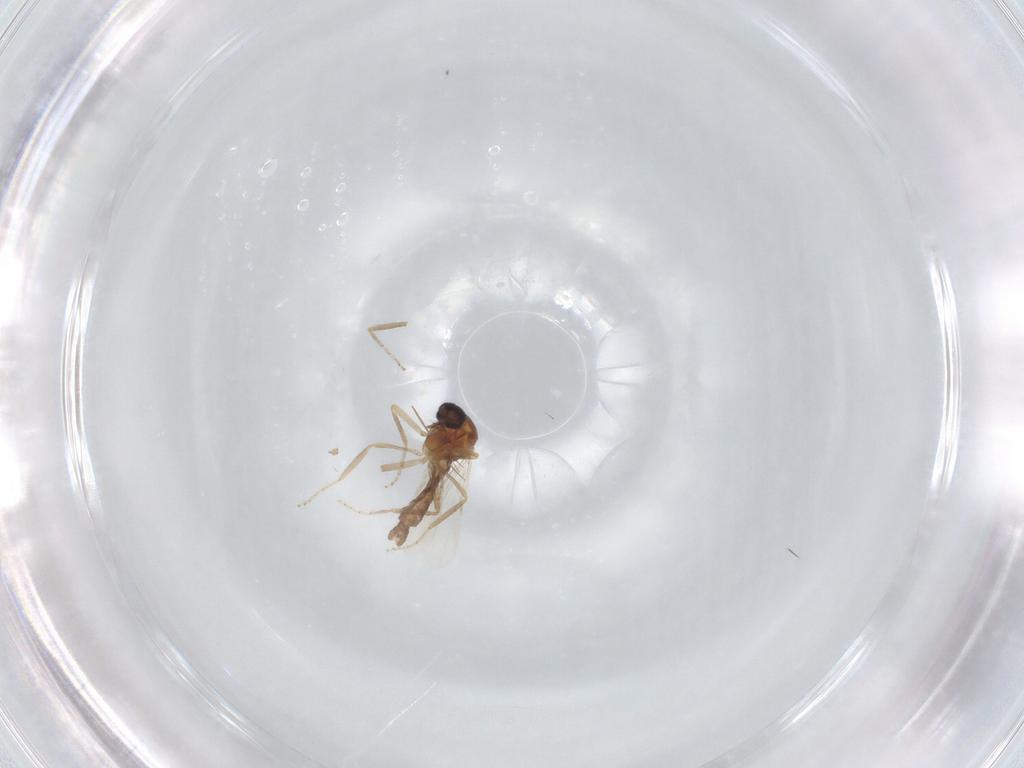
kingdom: Animalia
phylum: Arthropoda
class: Insecta
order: Diptera
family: Ceratopogonidae
